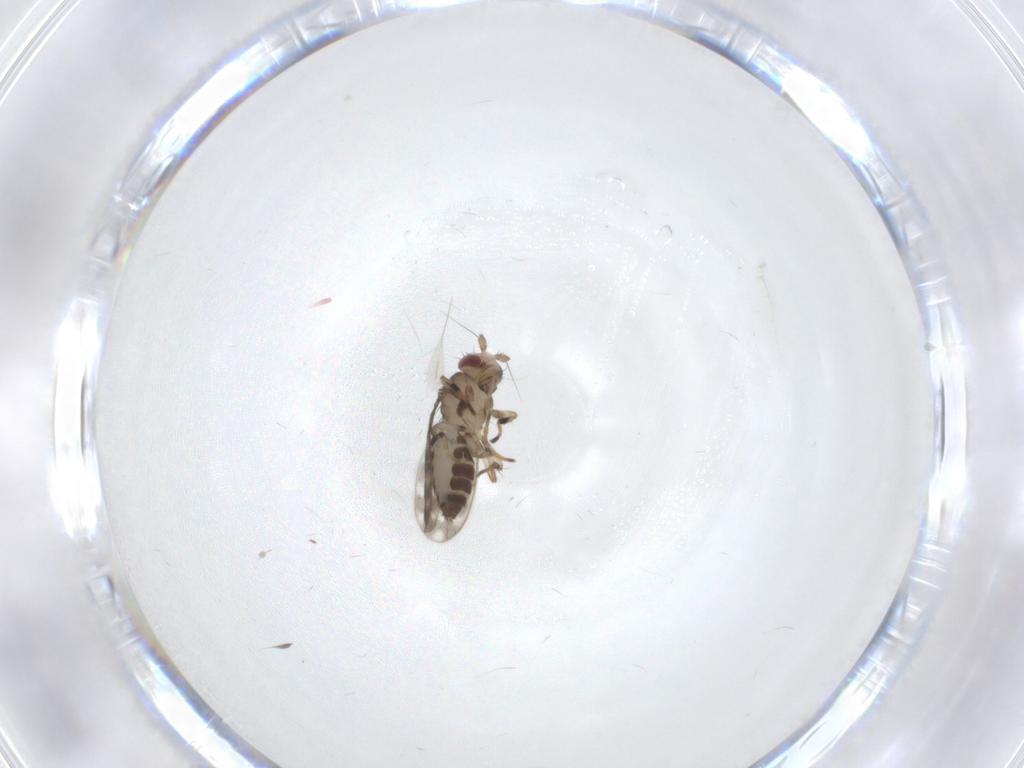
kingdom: Animalia
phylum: Arthropoda
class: Insecta
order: Diptera
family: Sphaeroceridae
